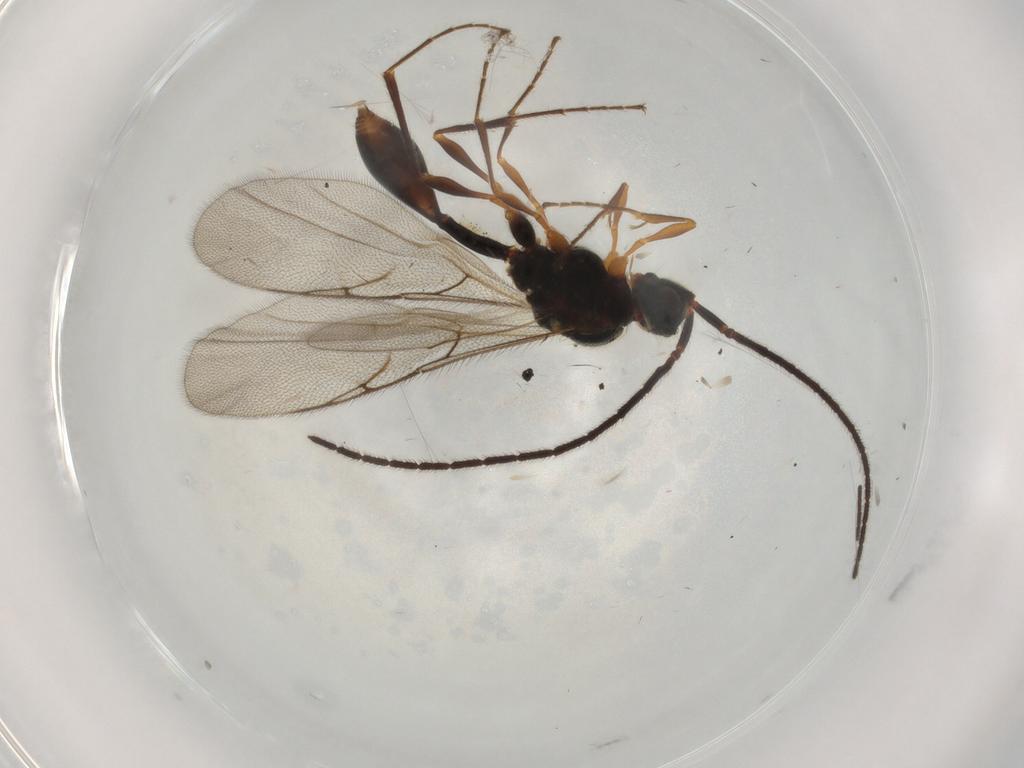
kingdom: Animalia
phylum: Arthropoda
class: Insecta
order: Hymenoptera
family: Diapriidae
